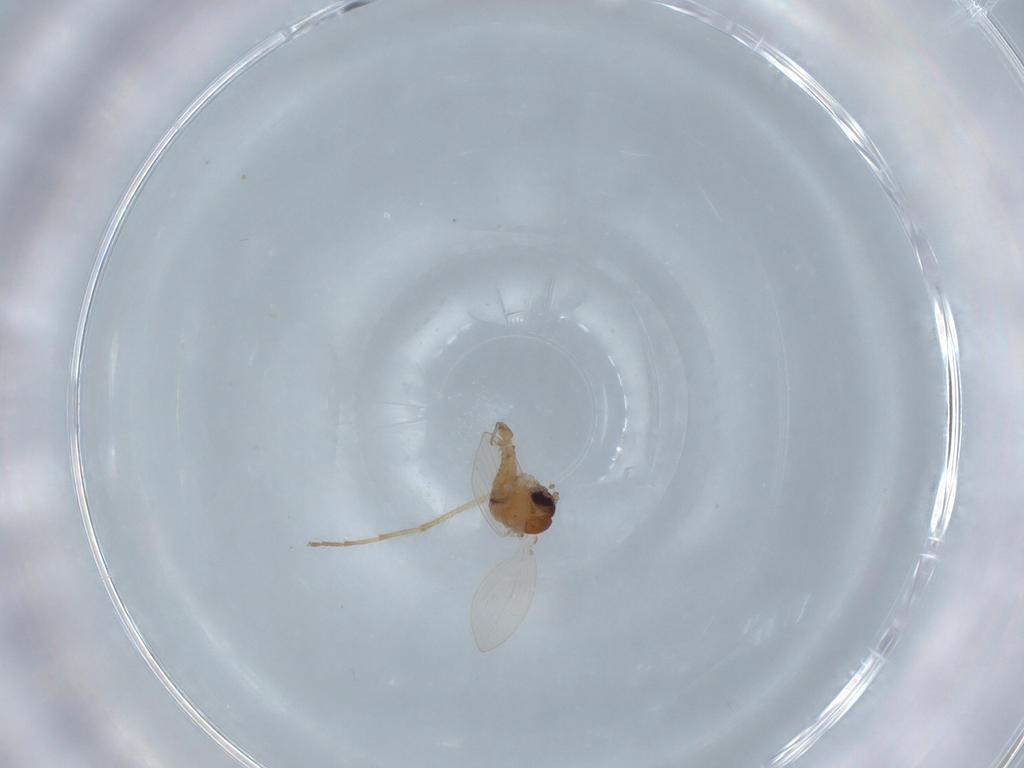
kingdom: Animalia
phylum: Arthropoda
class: Insecta
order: Diptera
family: Chironomidae
